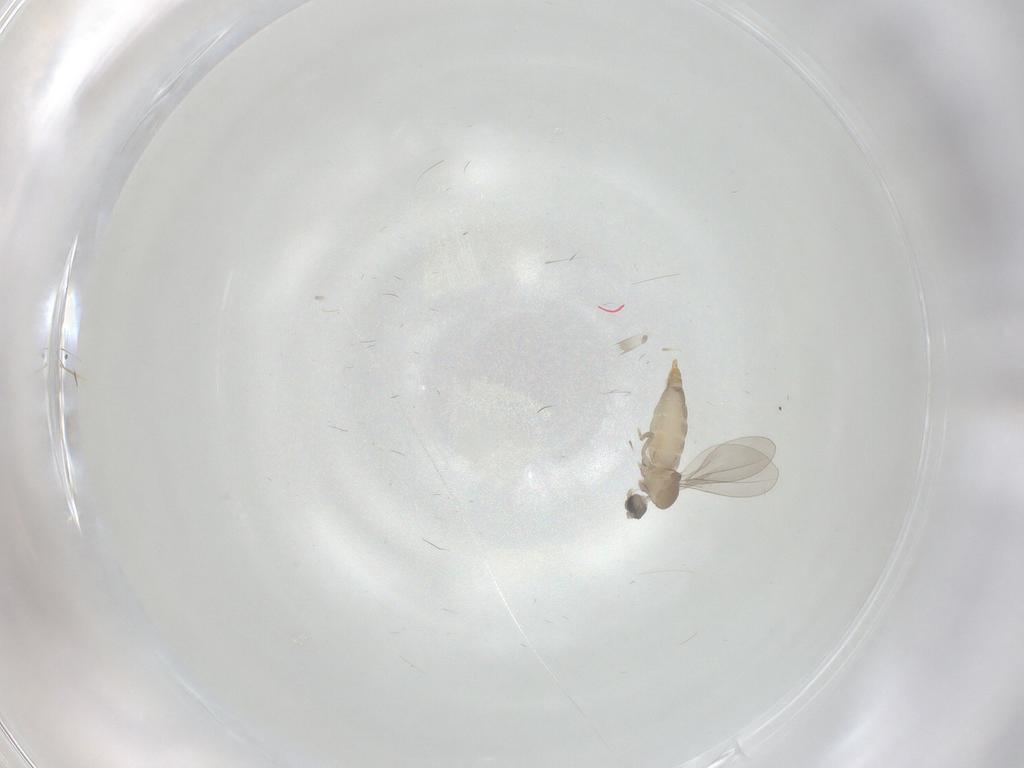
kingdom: Animalia
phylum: Arthropoda
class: Insecta
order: Diptera
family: Cecidomyiidae
